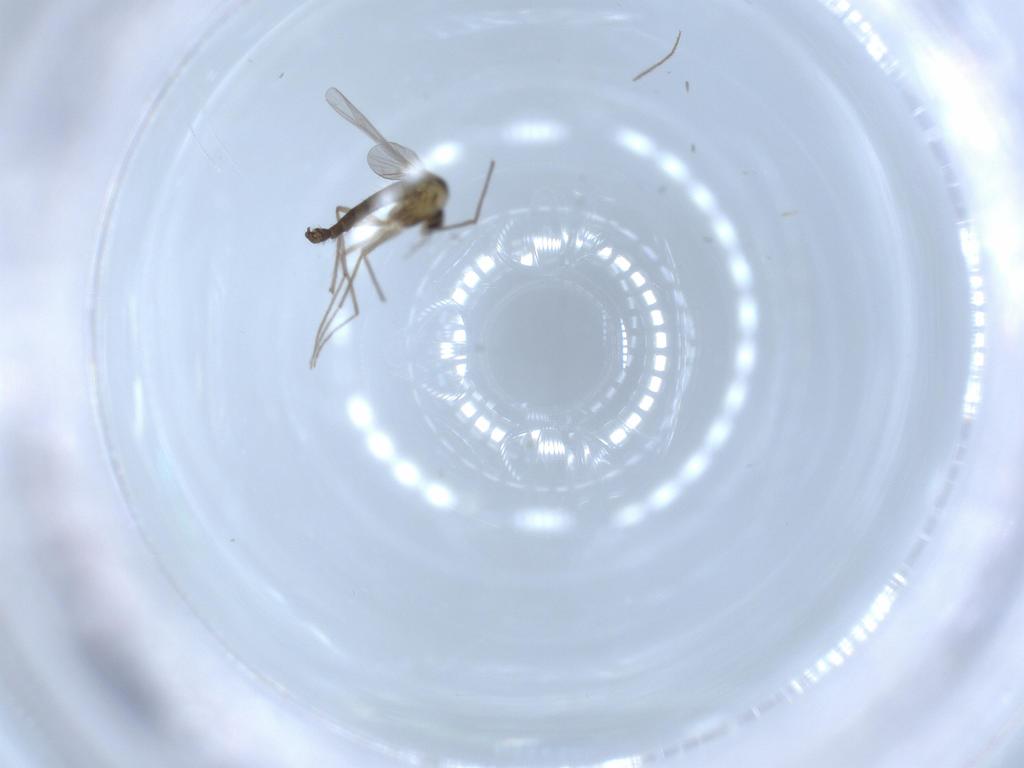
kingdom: Animalia
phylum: Arthropoda
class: Insecta
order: Diptera
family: Chironomidae
